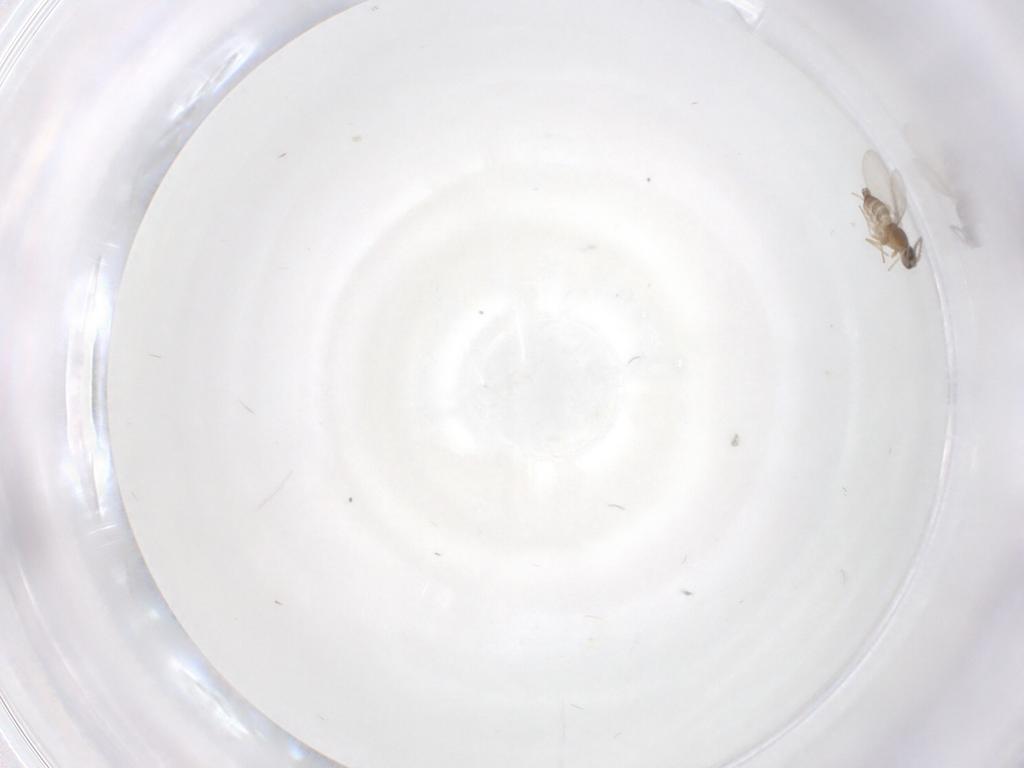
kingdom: Animalia
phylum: Arthropoda
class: Insecta
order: Diptera
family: Cecidomyiidae
